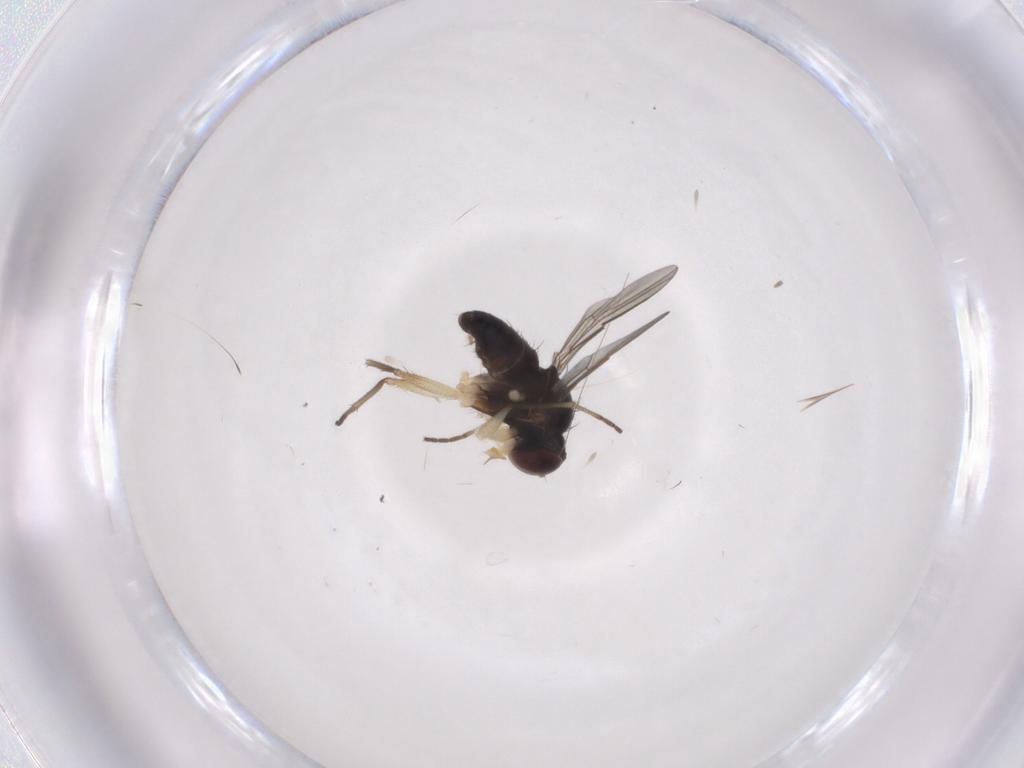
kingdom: Animalia
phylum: Arthropoda
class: Insecta
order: Diptera
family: Dolichopodidae
